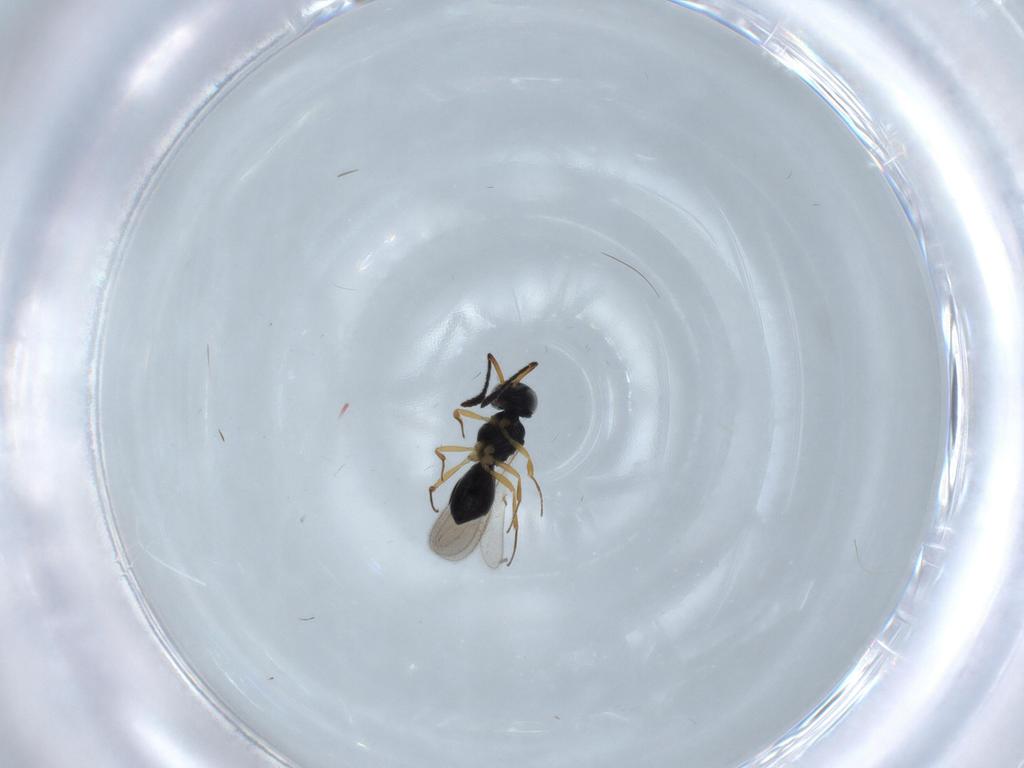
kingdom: Animalia
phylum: Arthropoda
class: Insecta
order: Hymenoptera
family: Scelionidae
